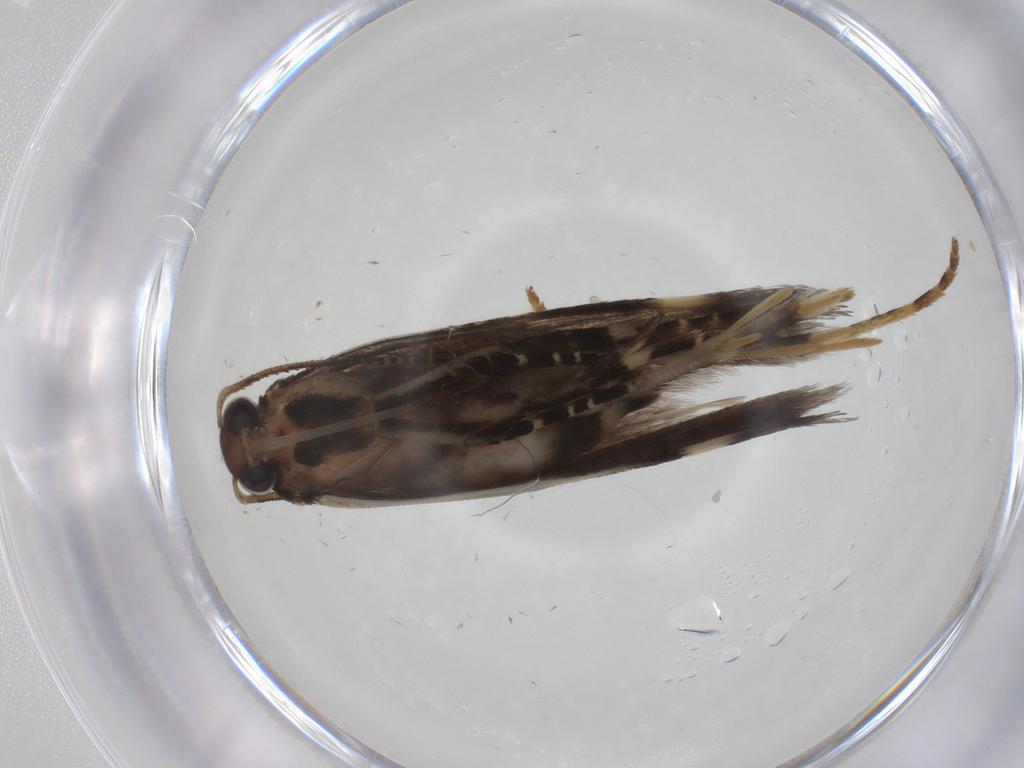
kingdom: Animalia
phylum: Arthropoda
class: Insecta
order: Lepidoptera
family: Gelechiidae
